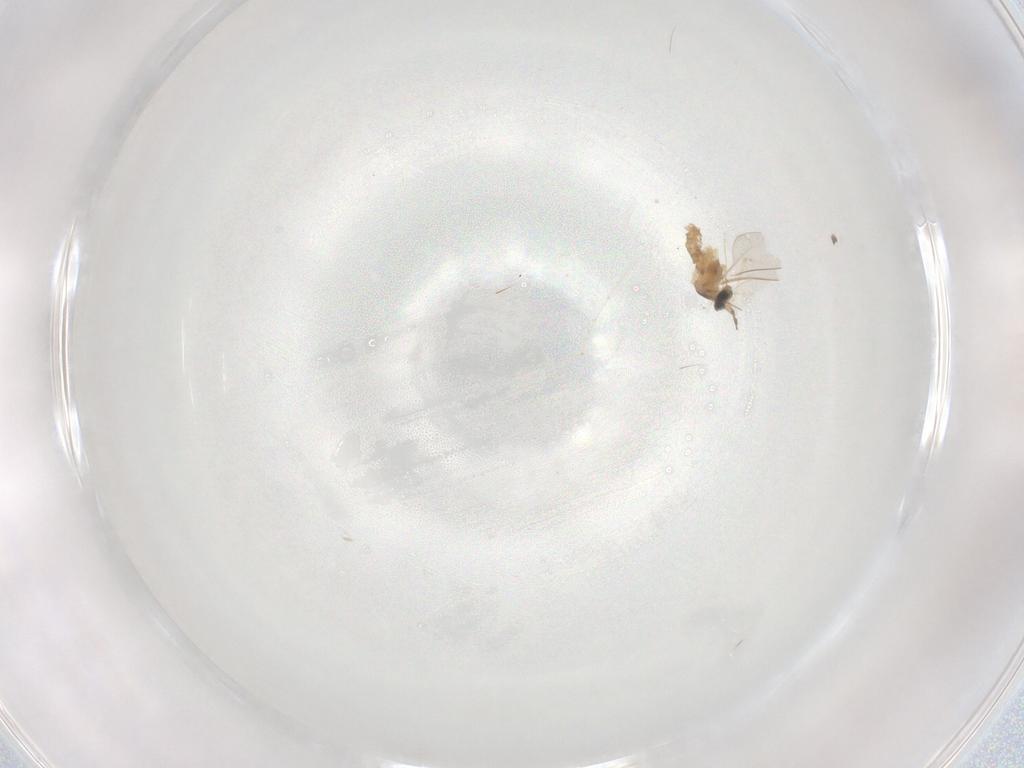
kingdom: Animalia
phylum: Arthropoda
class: Insecta
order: Diptera
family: Cecidomyiidae
